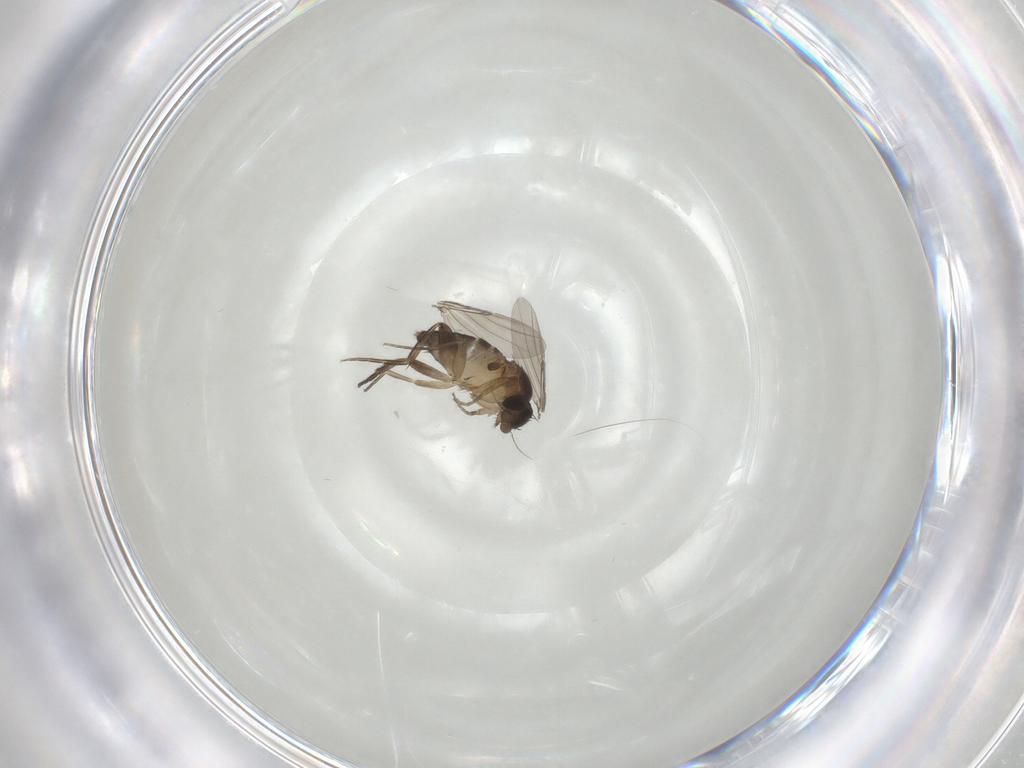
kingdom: Animalia
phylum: Arthropoda
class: Insecta
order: Diptera
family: Phoridae
